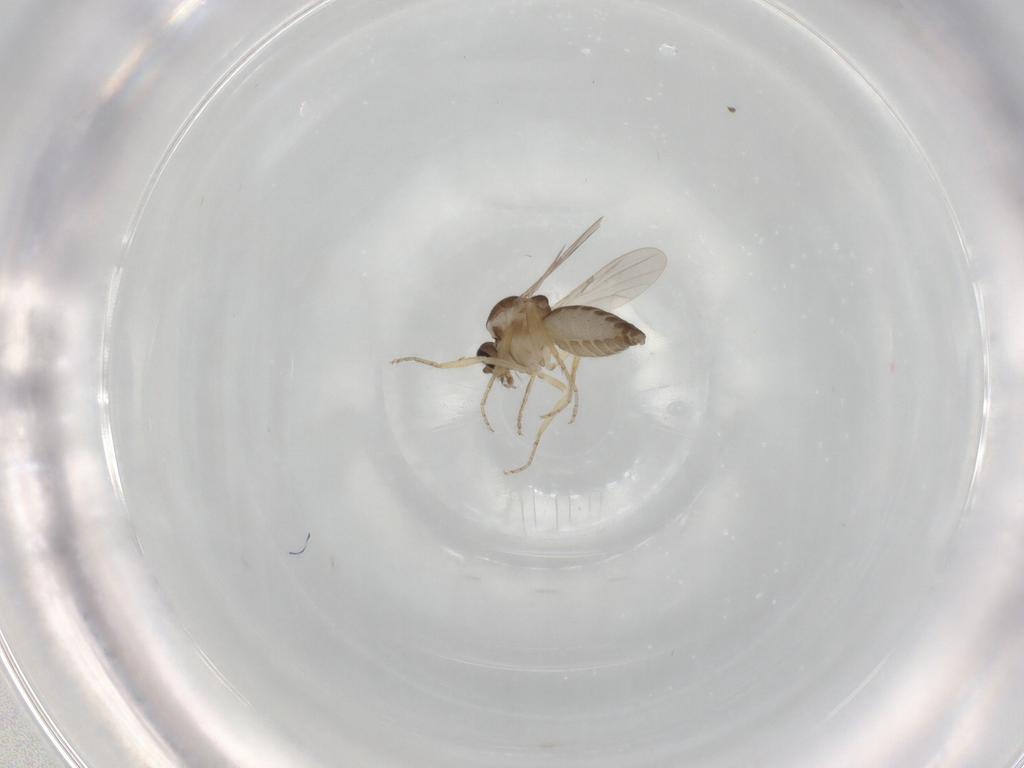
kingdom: Animalia
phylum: Arthropoda
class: Insecta
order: Diptera
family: Ceratopogonidae
